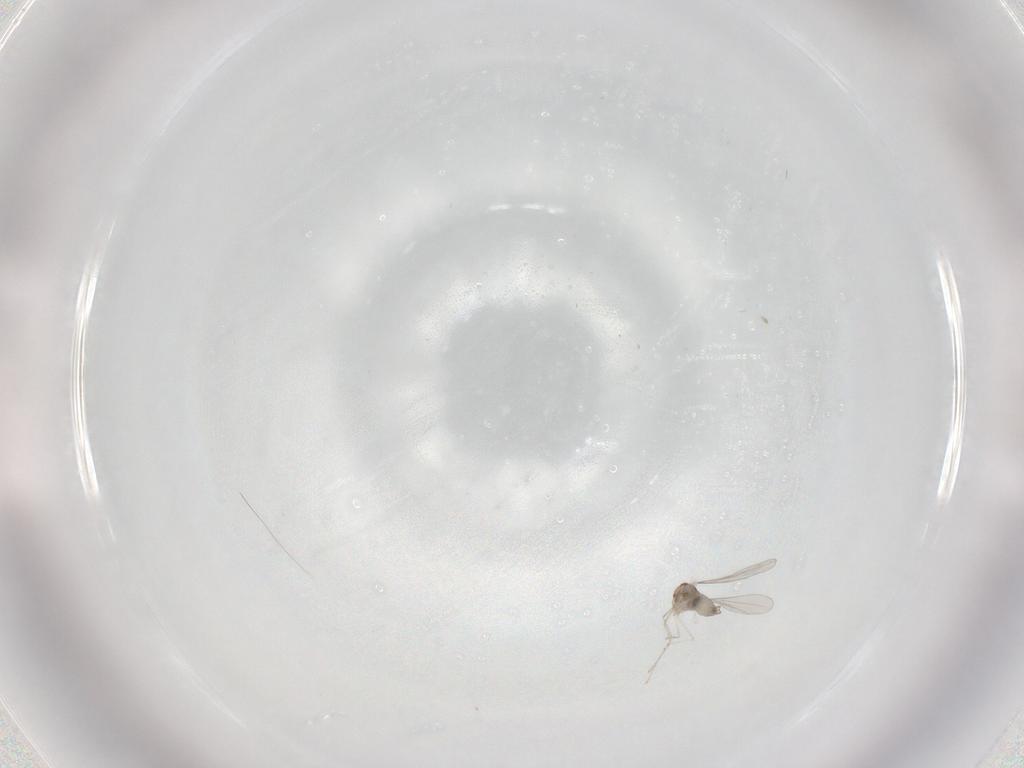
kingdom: Animalia
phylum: Arthropoda
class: Insecta
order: Diptera
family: Cecidomyiidae
